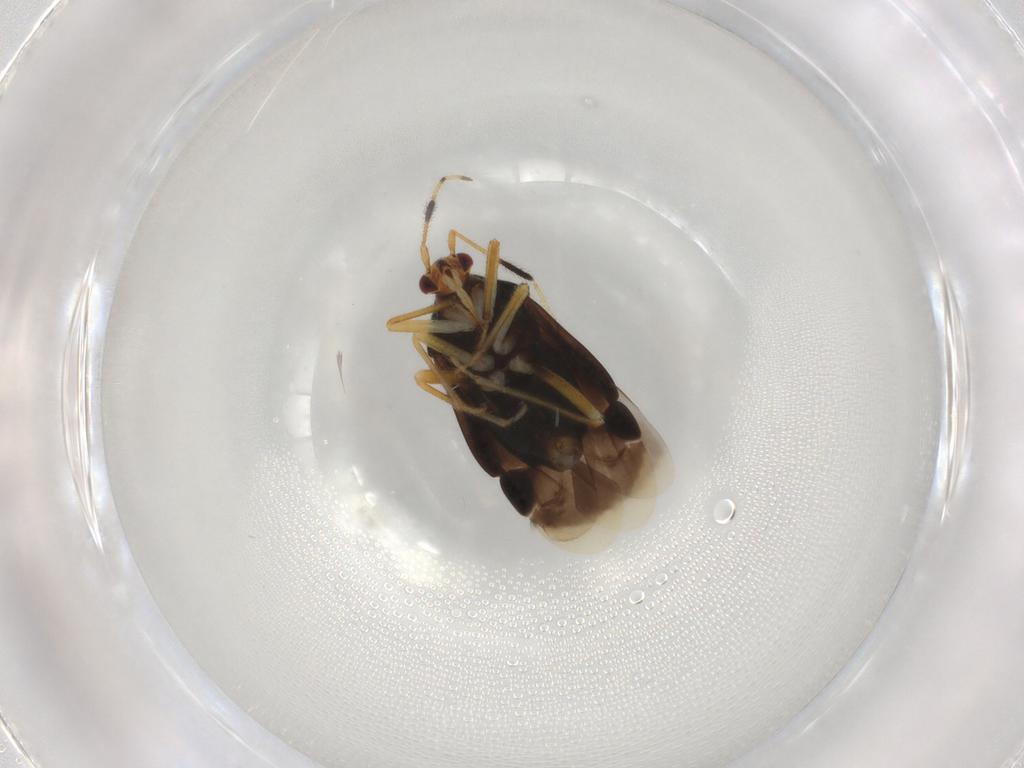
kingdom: Animalia
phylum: Arthropoda
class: Insecta
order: Hemiptera
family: Miridae
